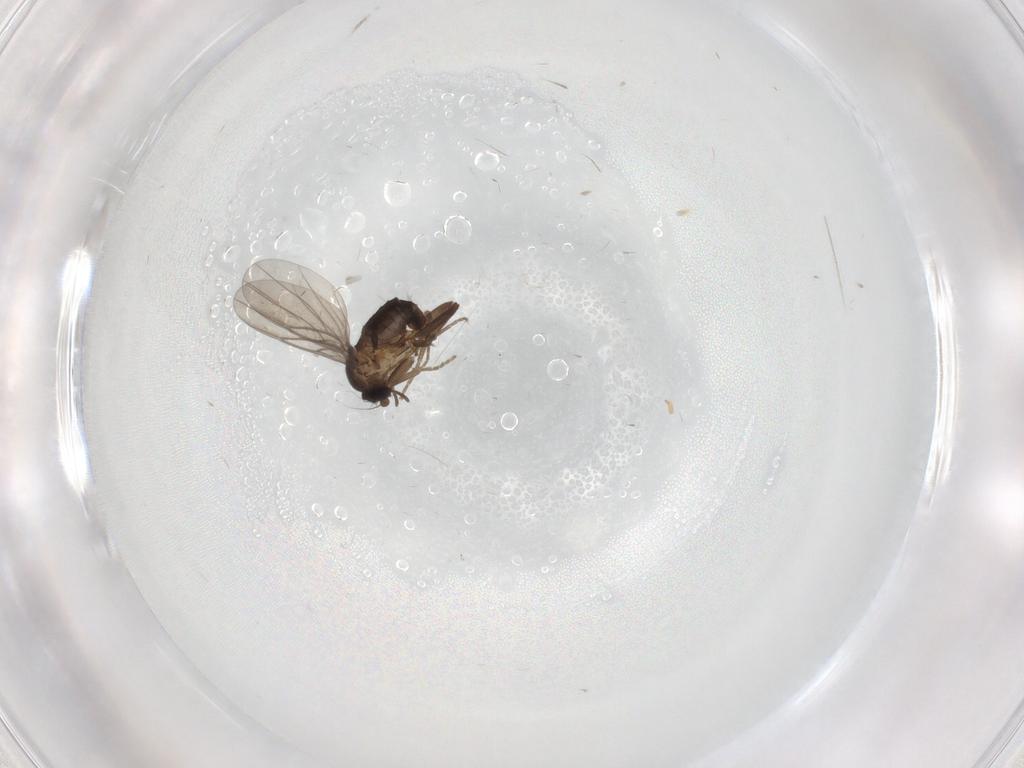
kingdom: Animalia
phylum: Arthropoda
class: Insecta
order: Diptera
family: Cecidomyiidae
